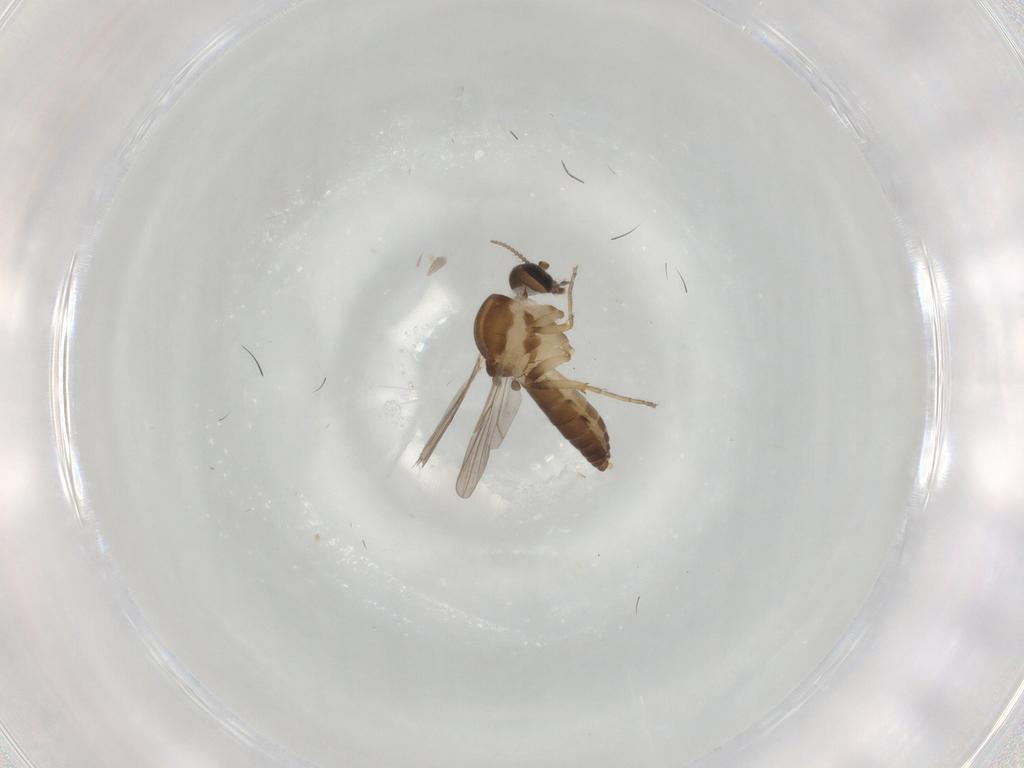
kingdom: Animalia
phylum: Arthropoda
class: Insecta
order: Diptera
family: Ceratopogonidae
